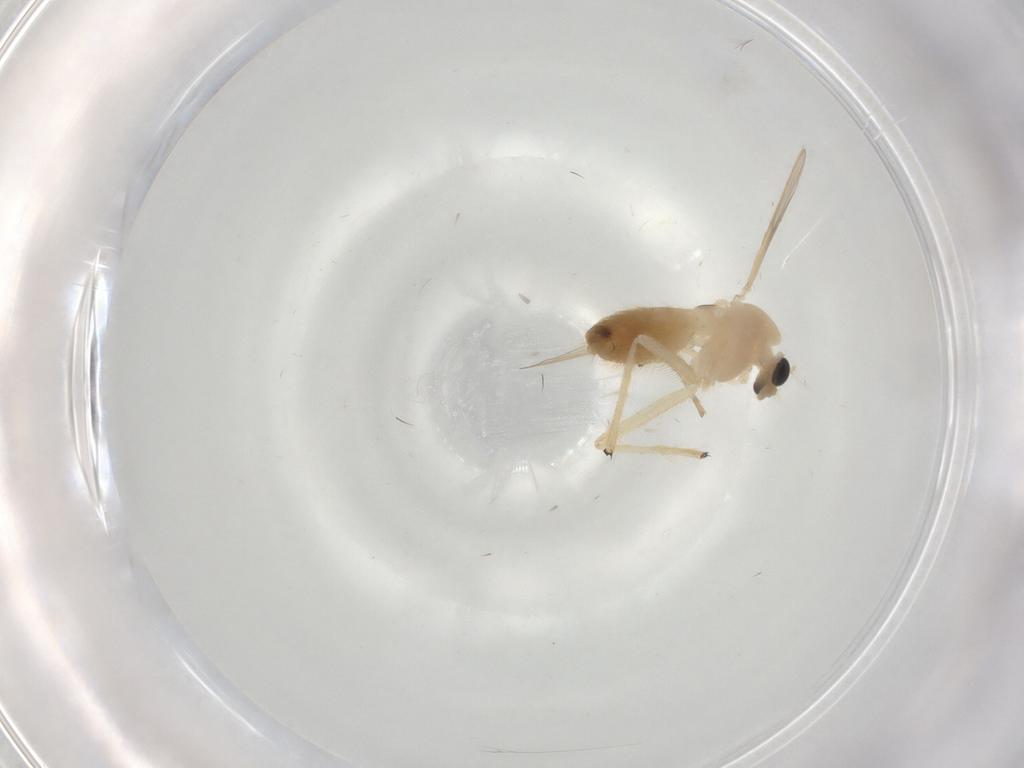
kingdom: Animalia
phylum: Arthropoda
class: Insecta
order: Diptera
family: Chironomidae
